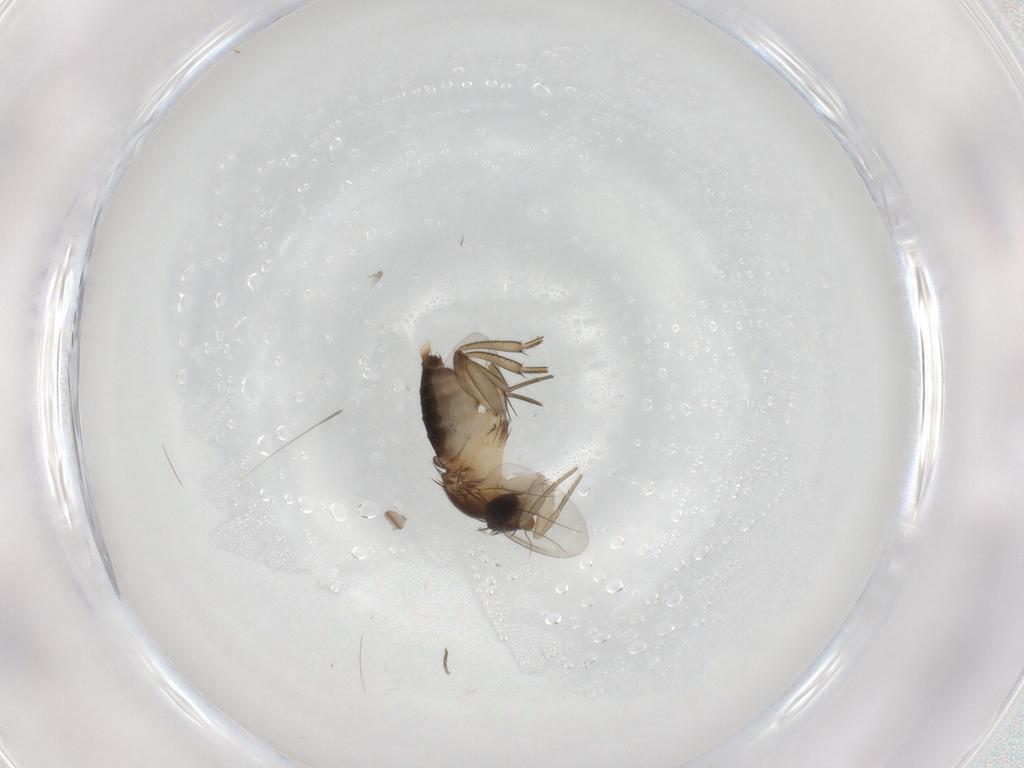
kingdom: Animalia
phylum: Arthropoda
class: Insecta
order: Diptera
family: Phoridae
